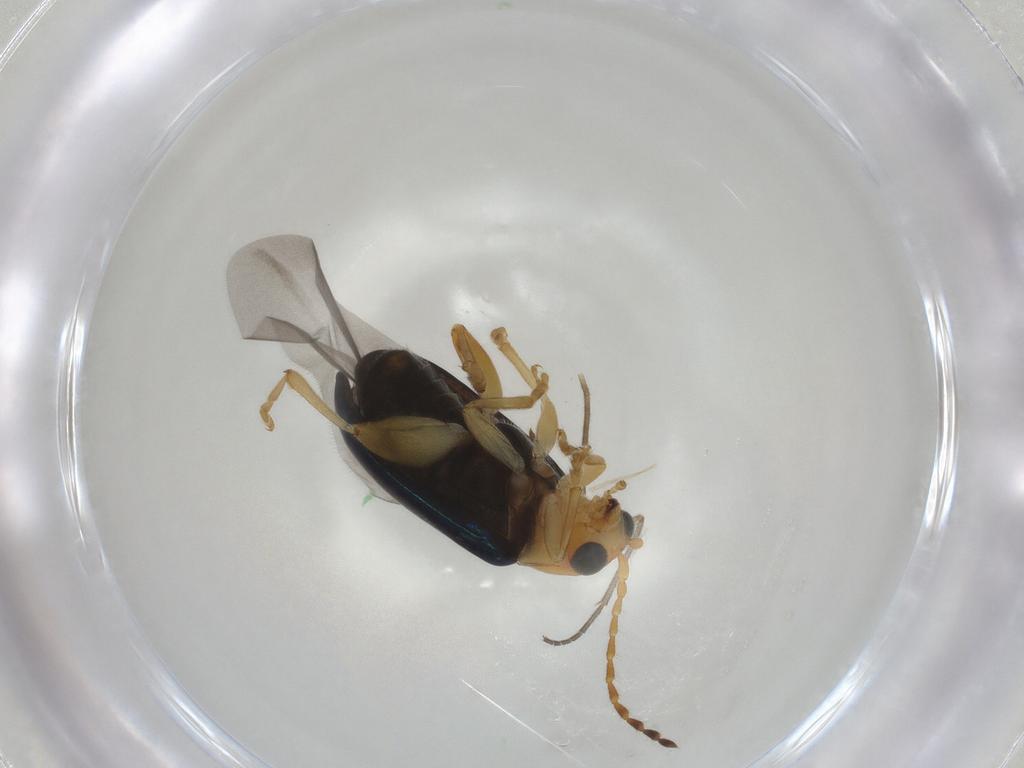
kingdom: Animalia
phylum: Arthropoda
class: Insecta
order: Coleoptera
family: Chrysomelidae
